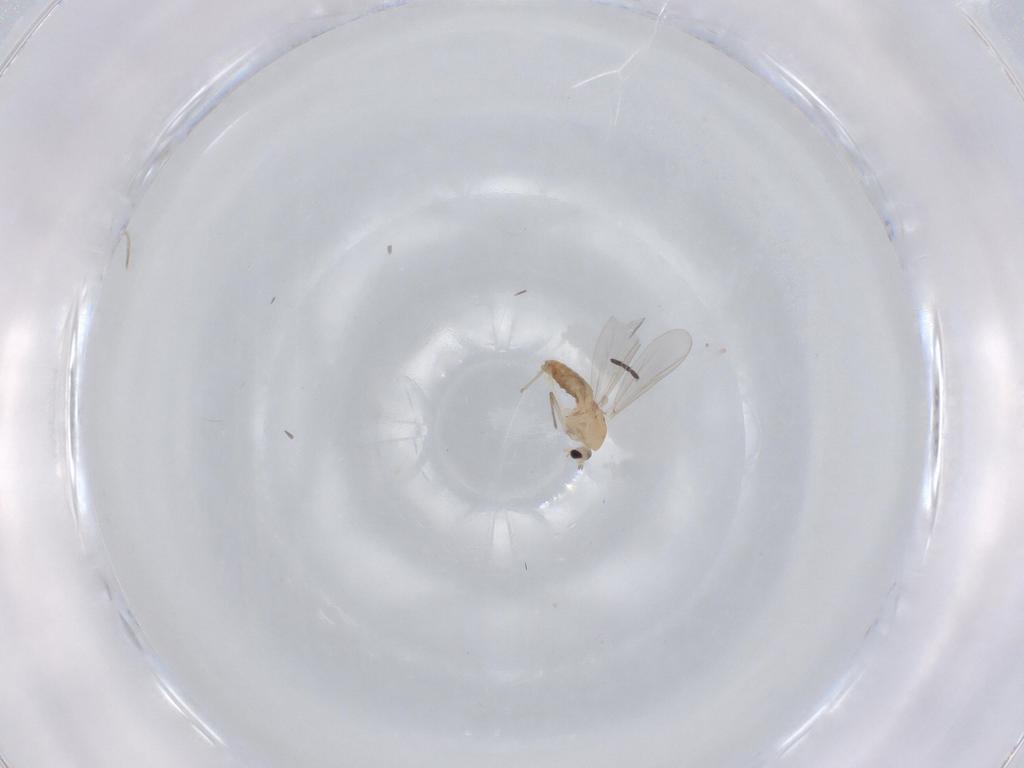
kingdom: Animalia
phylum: Arthropoda
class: Insecta
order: Diptera
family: Chironomidae
